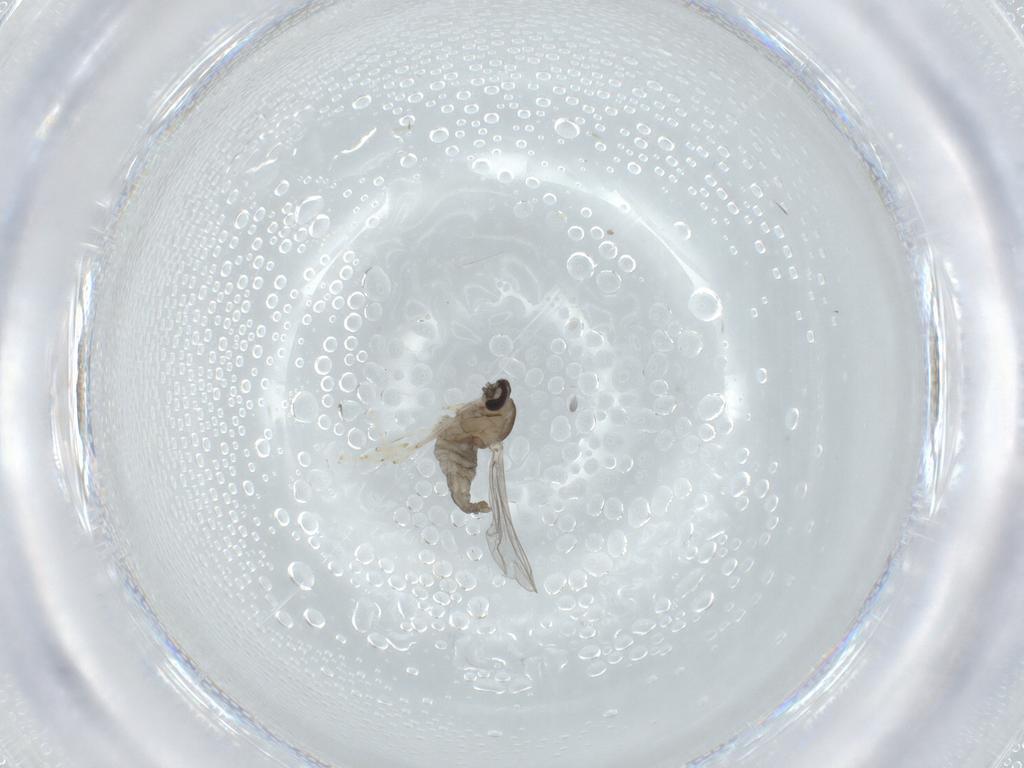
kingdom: Animalia
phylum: Arthropoda
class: Insecta
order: Diptera
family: Cecidomyiidae
